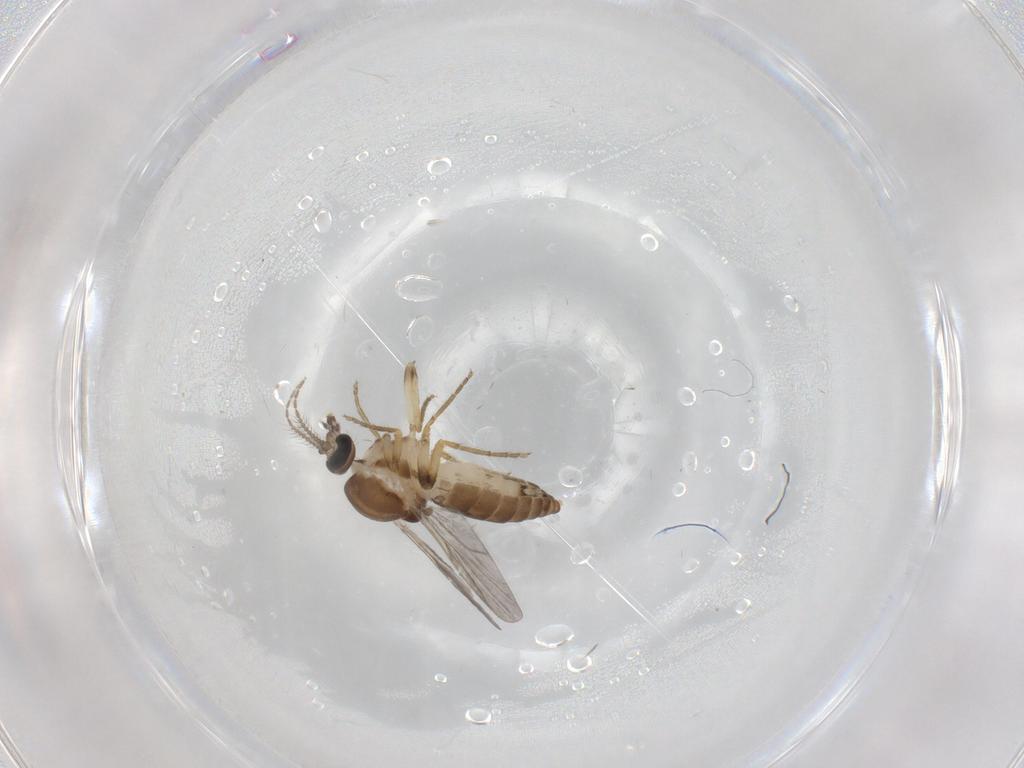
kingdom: Animalia
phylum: Arthropoda
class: Insecta
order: Diptera
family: Ceratopogonidae
